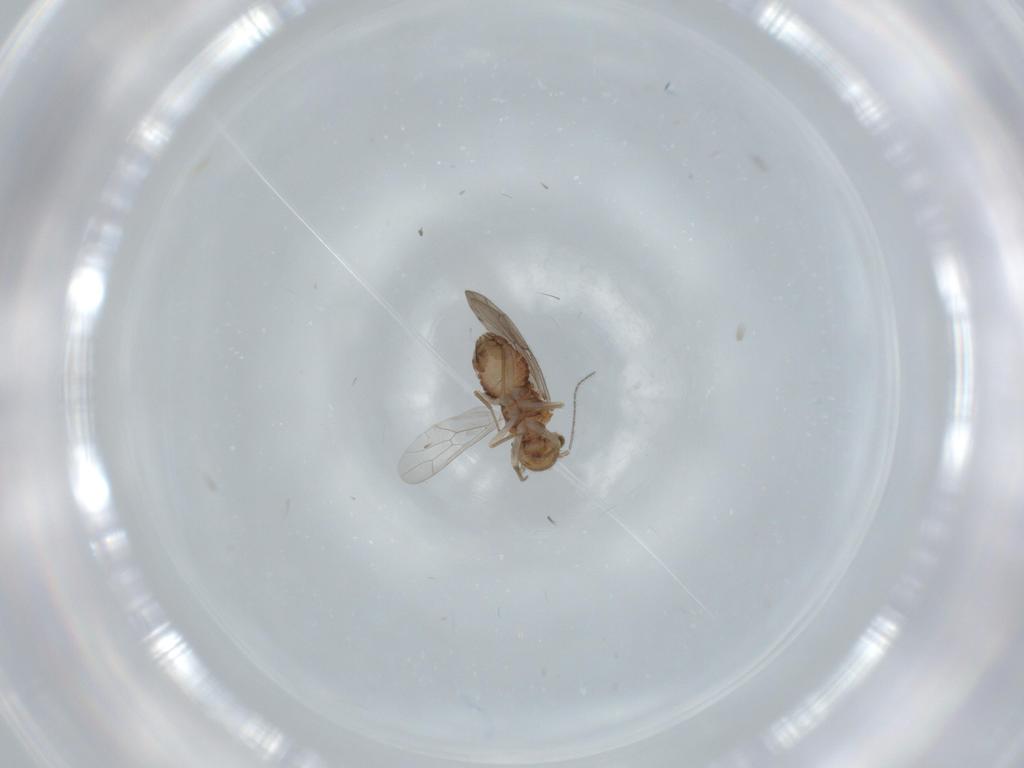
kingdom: Animalia
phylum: Arthropoda
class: Insecta
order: Psocodea
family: Ectopsocidae
